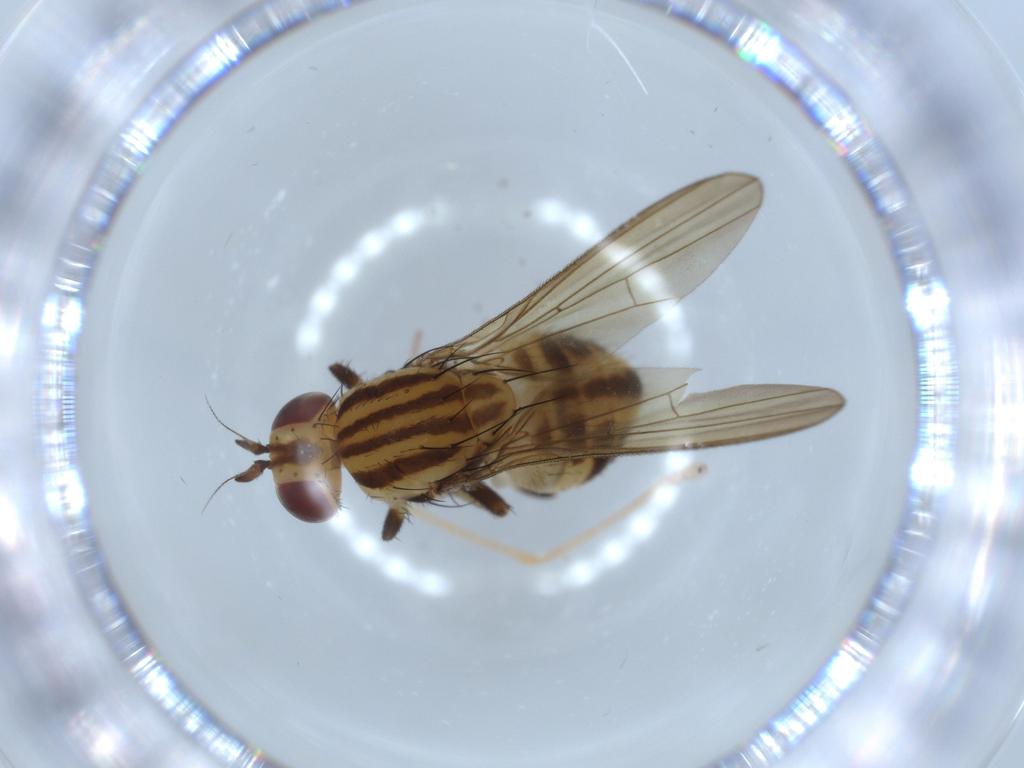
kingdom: Animalia
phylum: Arthropoda
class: Insecta
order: Diptera
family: Lauxaniidae
